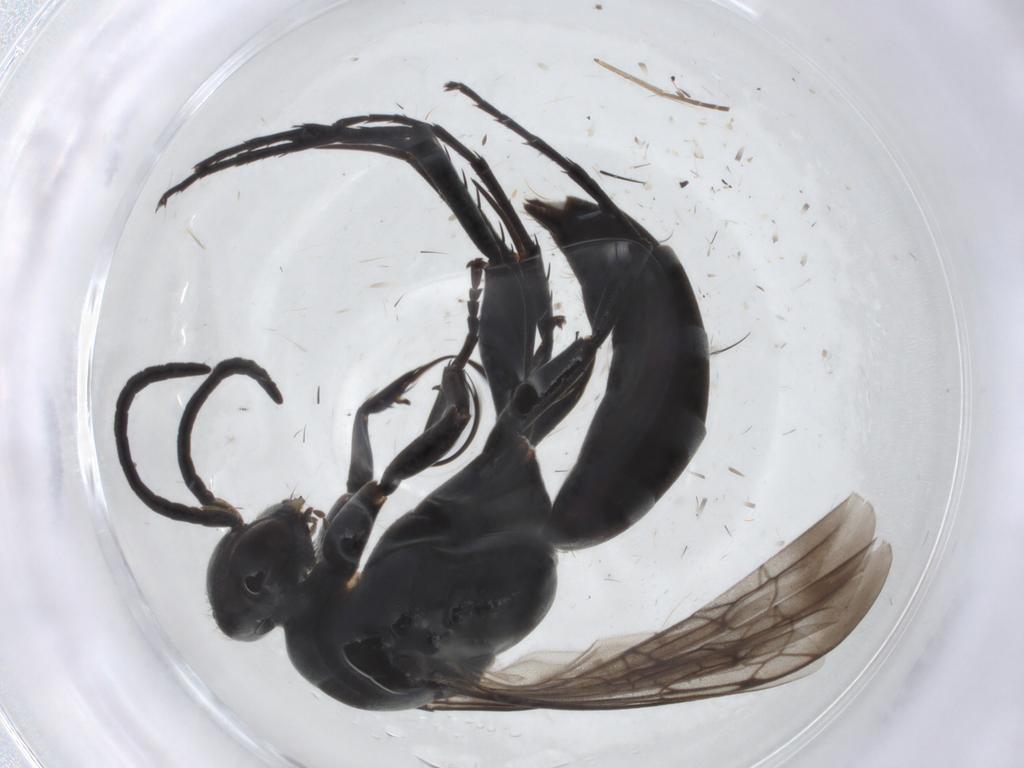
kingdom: Animalia
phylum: Arthropoda
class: Insecta
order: Hymenoptera
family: Pompilidae
